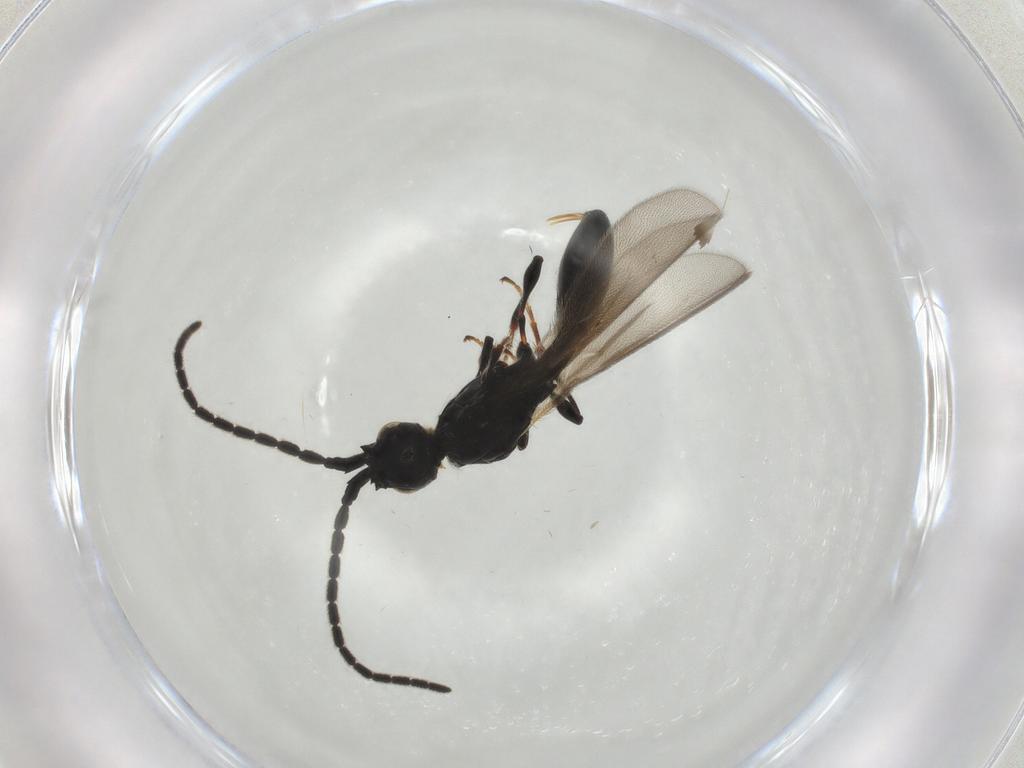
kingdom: Animalia
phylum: Arthropoda
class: Insecta
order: Hymenoptera
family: Diapriidae
